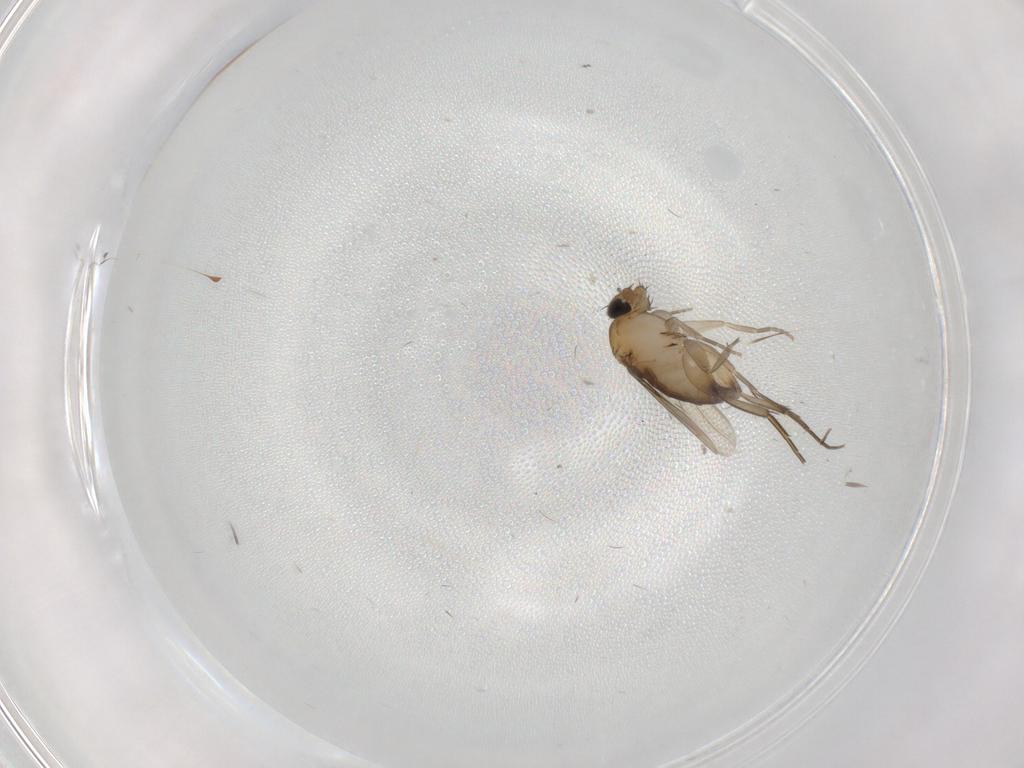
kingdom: Animalia
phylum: Arthropoda
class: Insecta
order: Diptera
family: Phoridae
